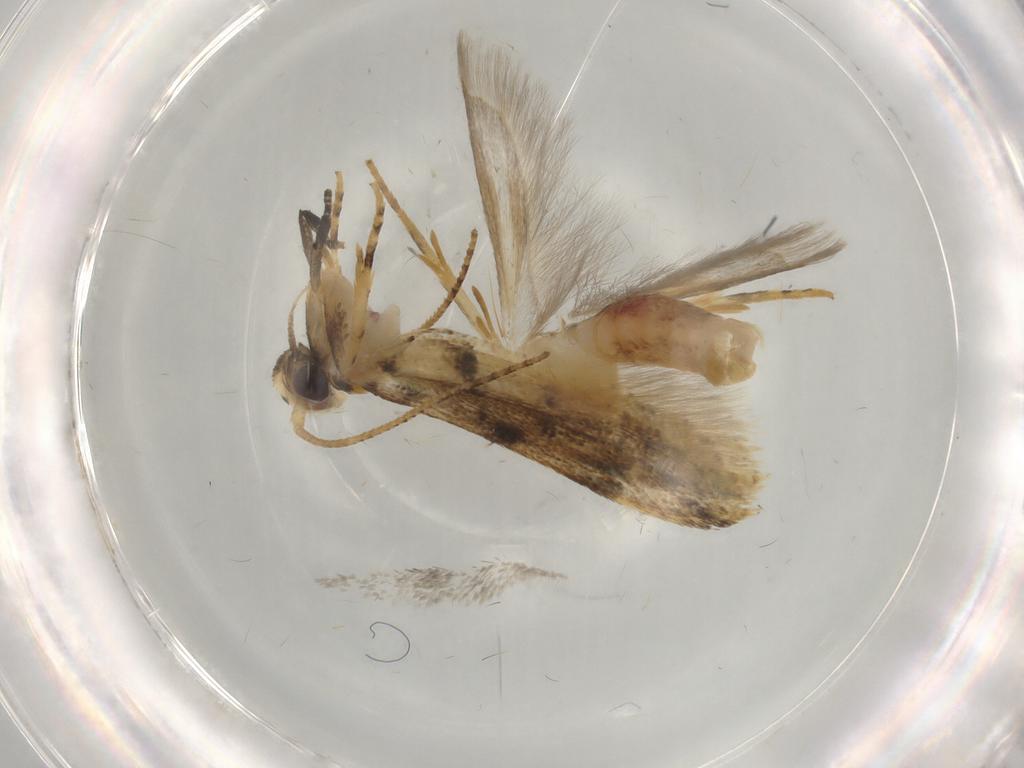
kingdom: Animalia
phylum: Arthropoda
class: Insecta
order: Lepidoptera
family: Gelechiidae
